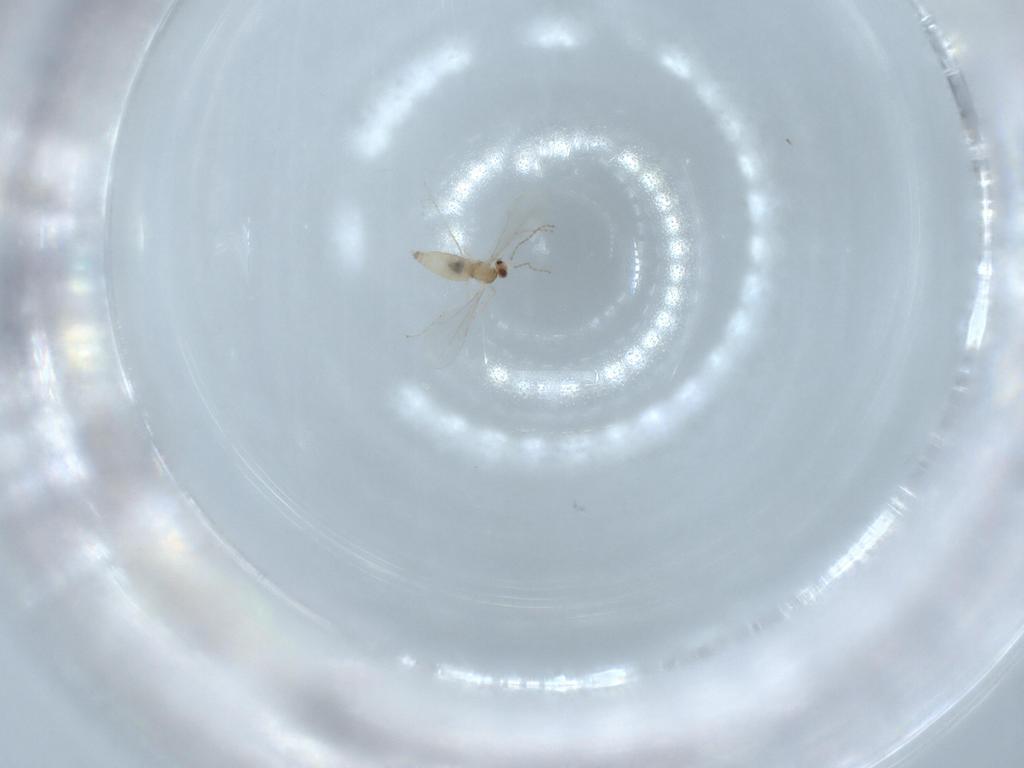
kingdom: Animalia
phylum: Arthropoda
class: Insecta
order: Diptera
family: Cecidomyiidae
